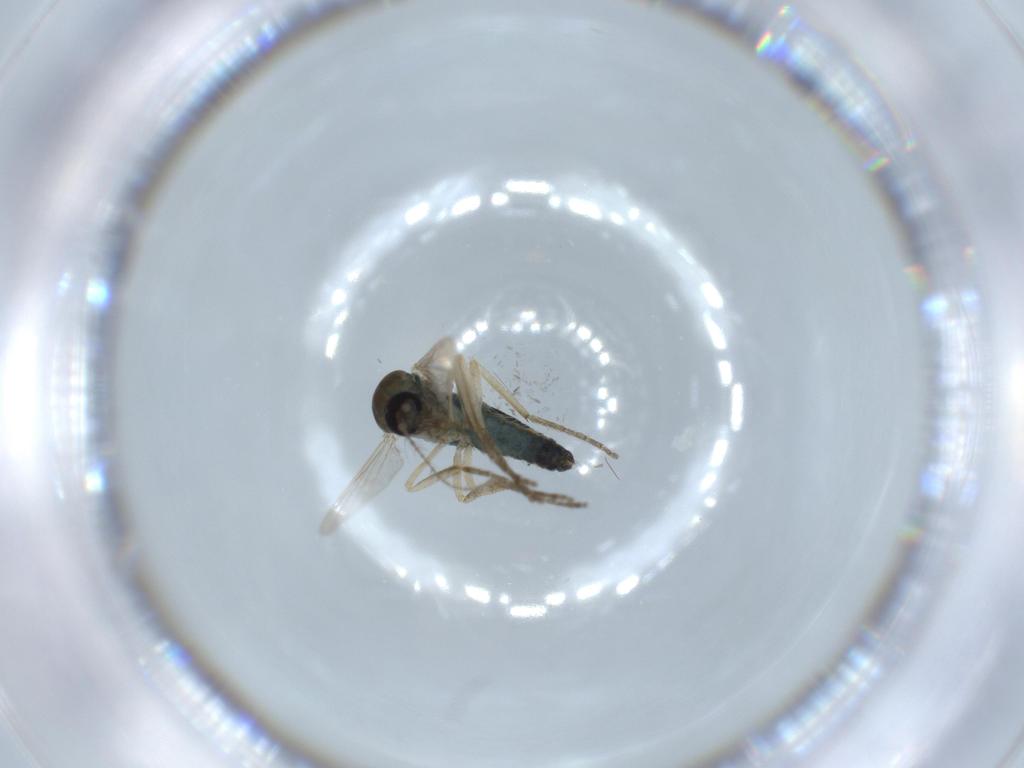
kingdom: Animalia
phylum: Arthropoda
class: Insecta
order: Diptera
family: Ceratopogonidae
